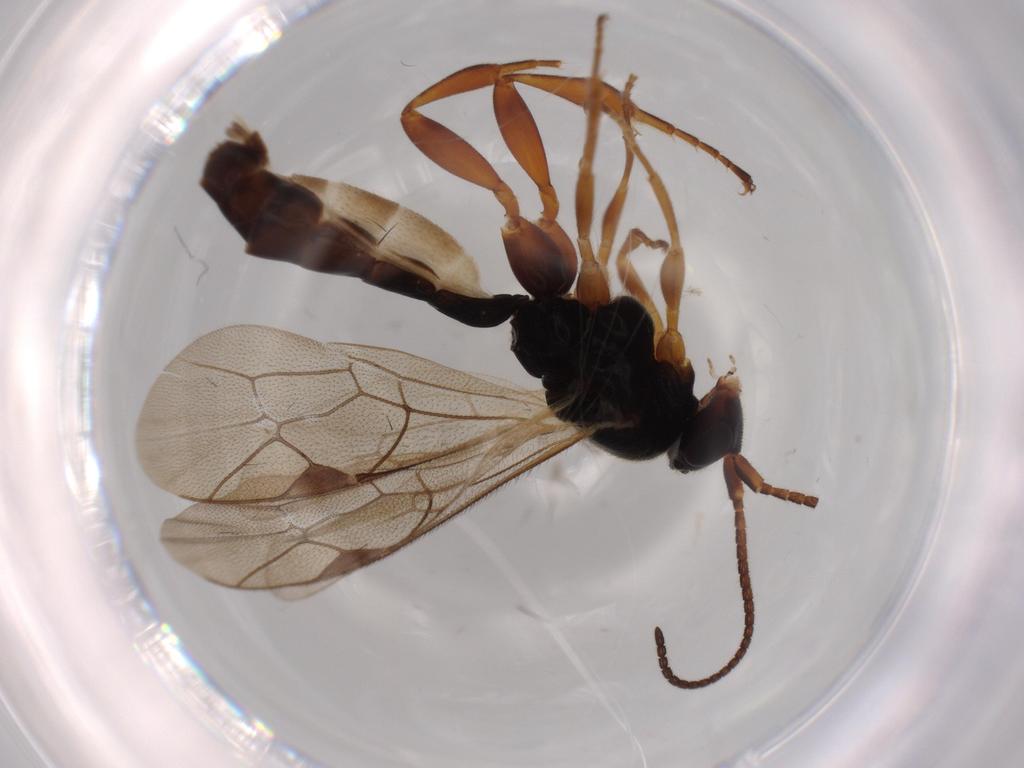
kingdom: Animalia
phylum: Arthropoda
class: Insecta
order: Hymenoptera
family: Ichneumonidae
